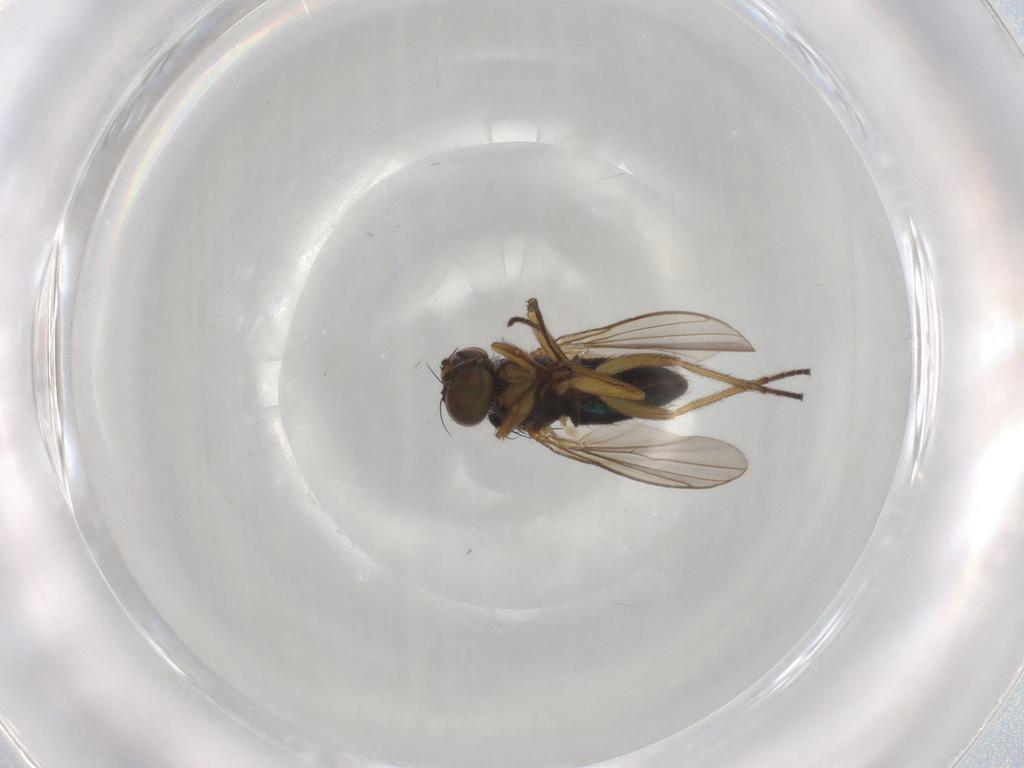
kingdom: Animalia
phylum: Arthropoda
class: Insecta
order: Diptera
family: Dolichopodidae
